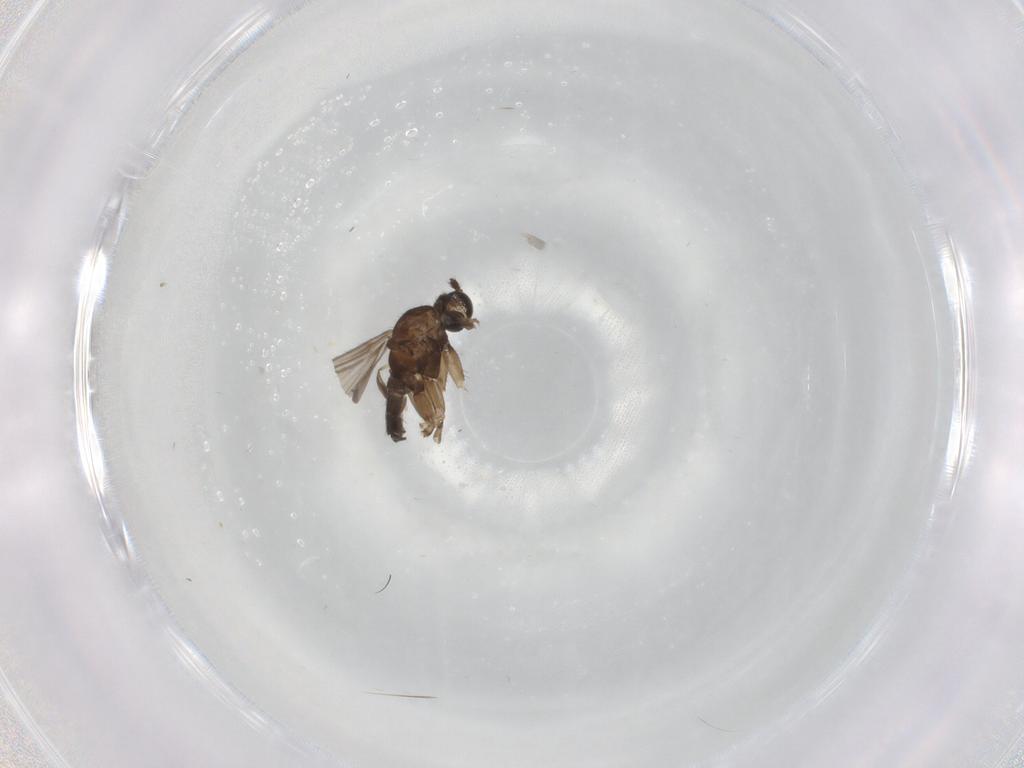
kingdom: Animalia
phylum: Arthropoda
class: Insecta
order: Diptera
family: Sciaridae
